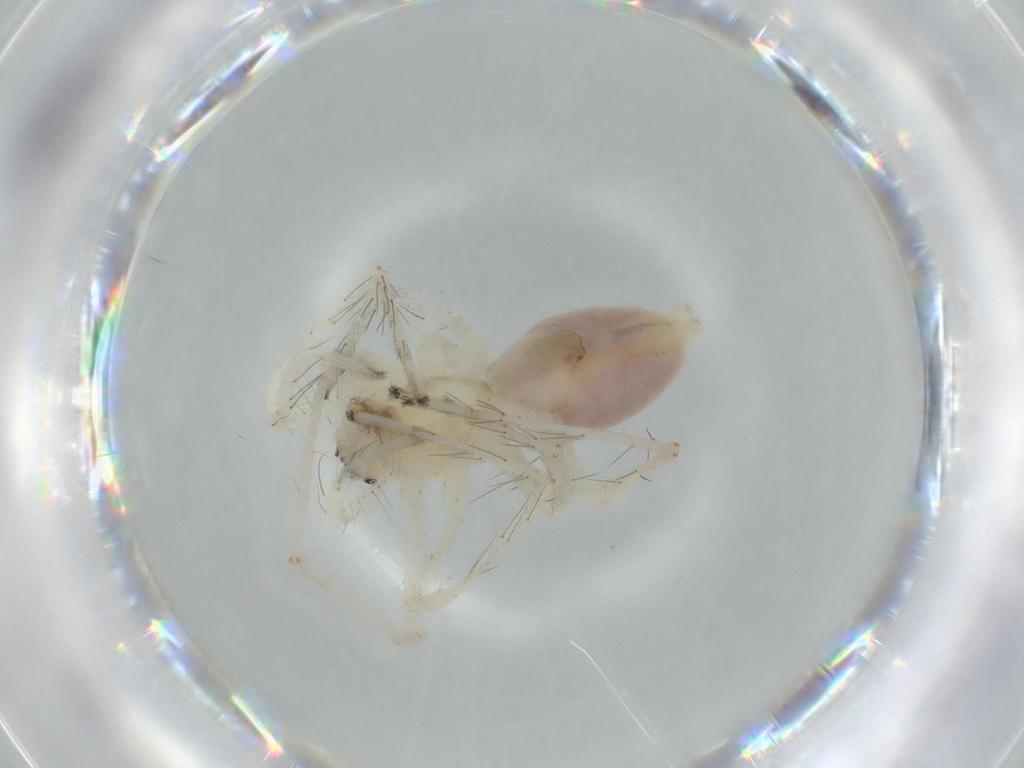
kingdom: Animalia
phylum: Arthropoda
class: Arachnida
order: Araneae
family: Anyphaenidae
